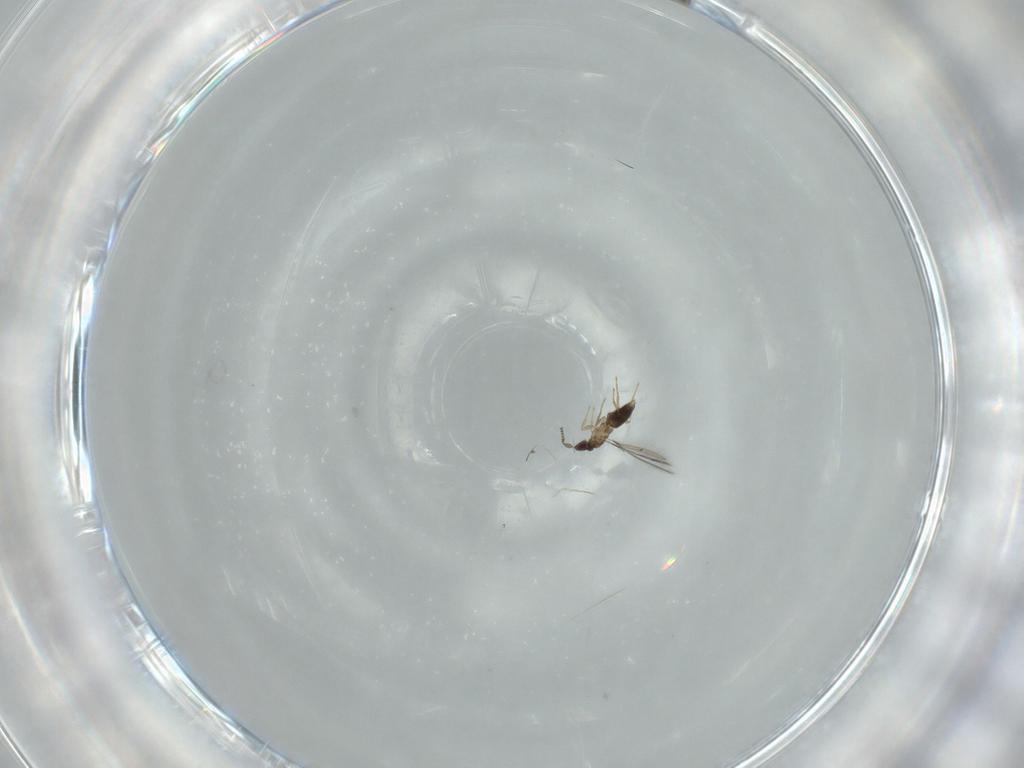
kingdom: Animalia
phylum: Arthropoda
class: Insecta
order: Hymenoptera
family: Mymaridae
